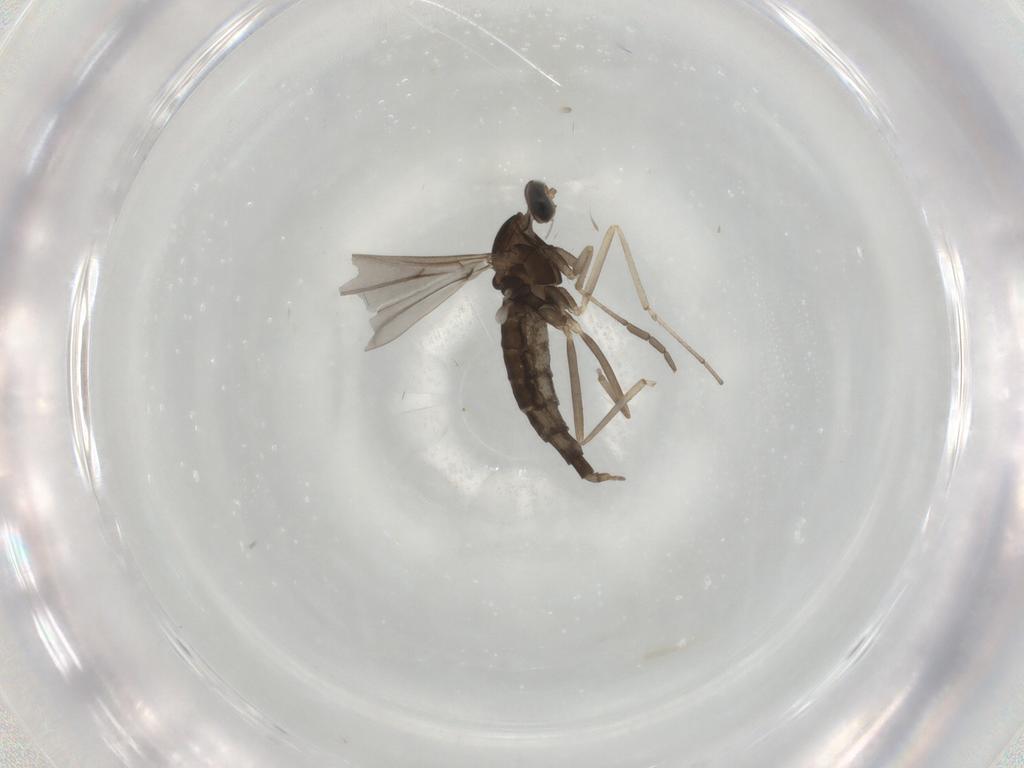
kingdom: Animalia
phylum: Arthropoda
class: Insecta
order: Diptera
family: Cecidomyiidae
